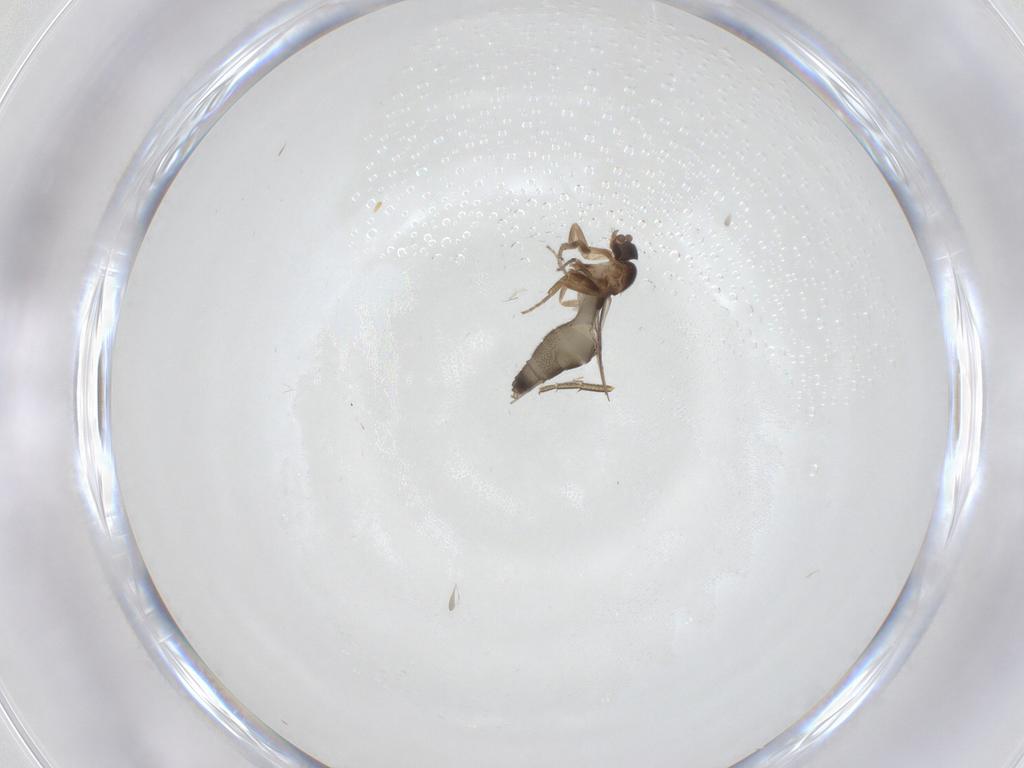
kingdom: Animalia
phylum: Arthropoda
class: Insecta
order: Diptera
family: Phoridae
